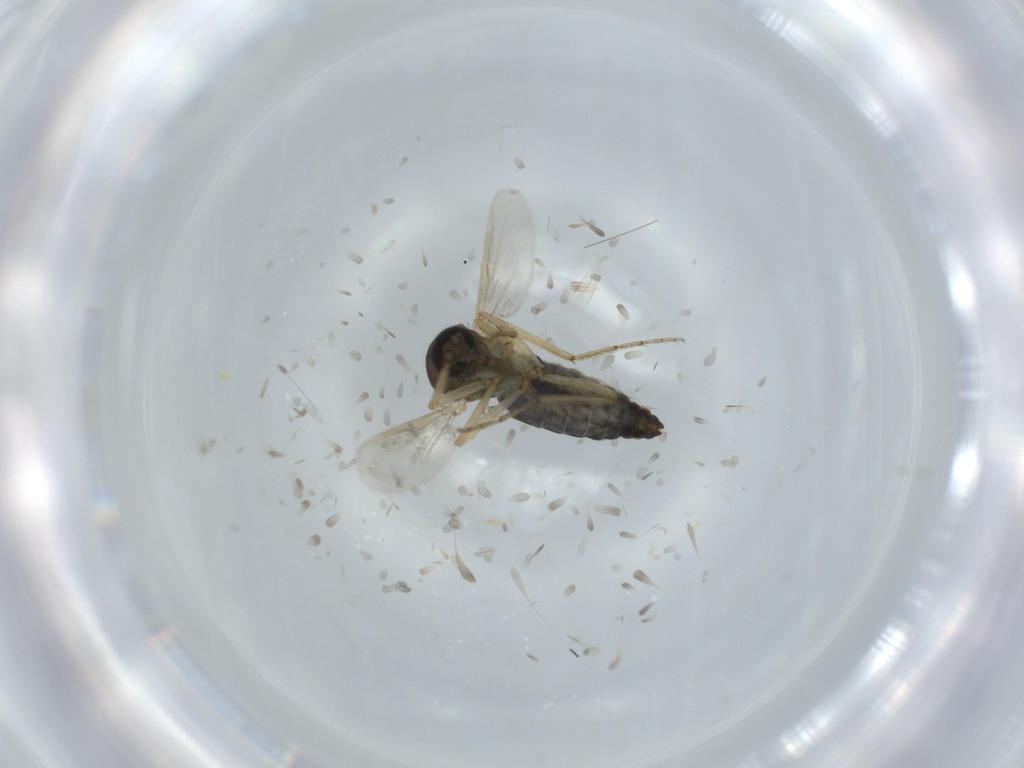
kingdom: Animalia
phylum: Arthropoda
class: Insecta
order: Diptera
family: Ceratopogonidae
